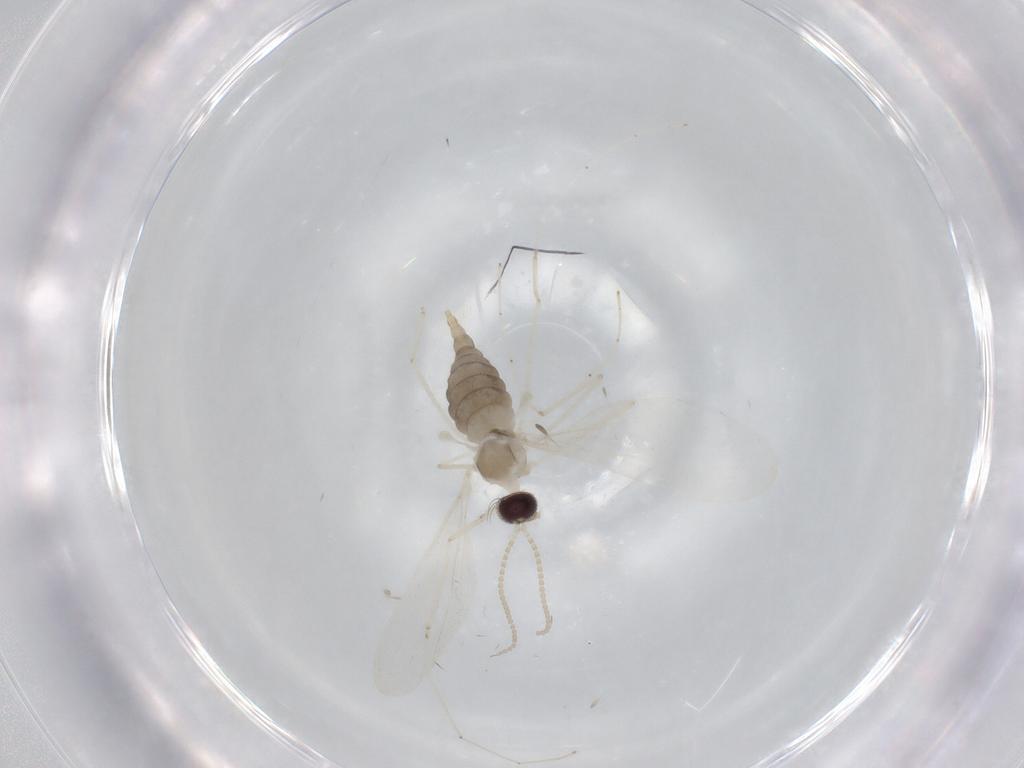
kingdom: Animalia
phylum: Arthropoda
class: Insecta
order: Diptera
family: Cecidomyiidae
